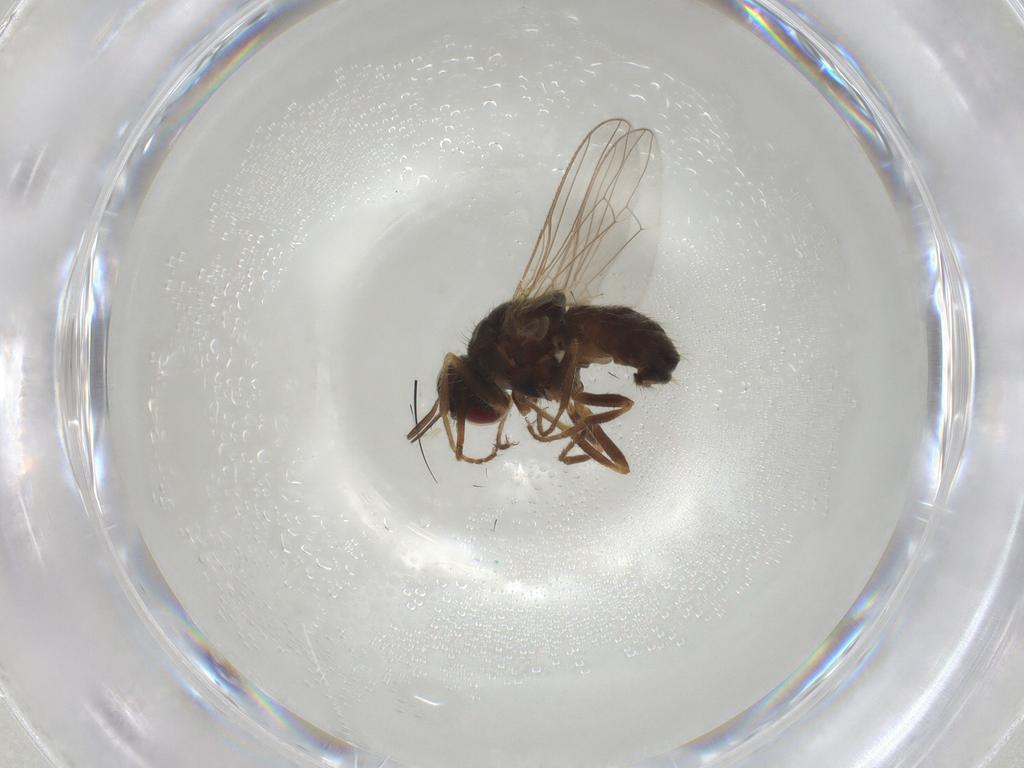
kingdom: Animalia
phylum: Arthropoda
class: Insecta
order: Diptera
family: Muscidae
